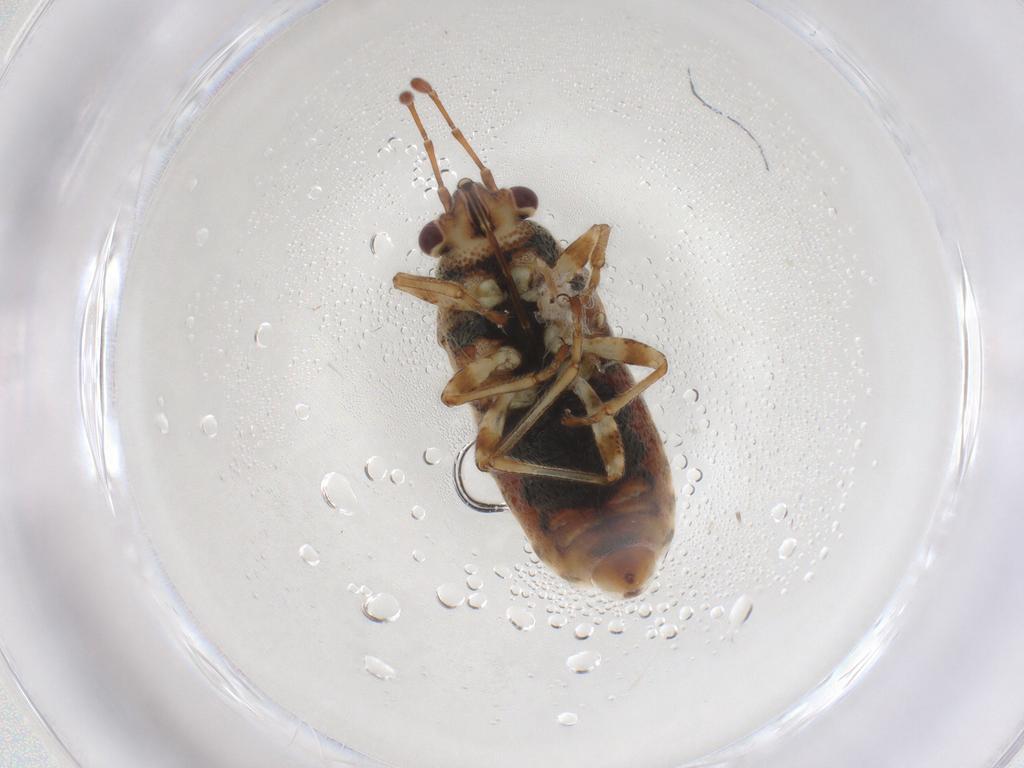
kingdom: Animalia
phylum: Arthropoda
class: Insecta
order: Hemiptera
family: Lygaeidae
